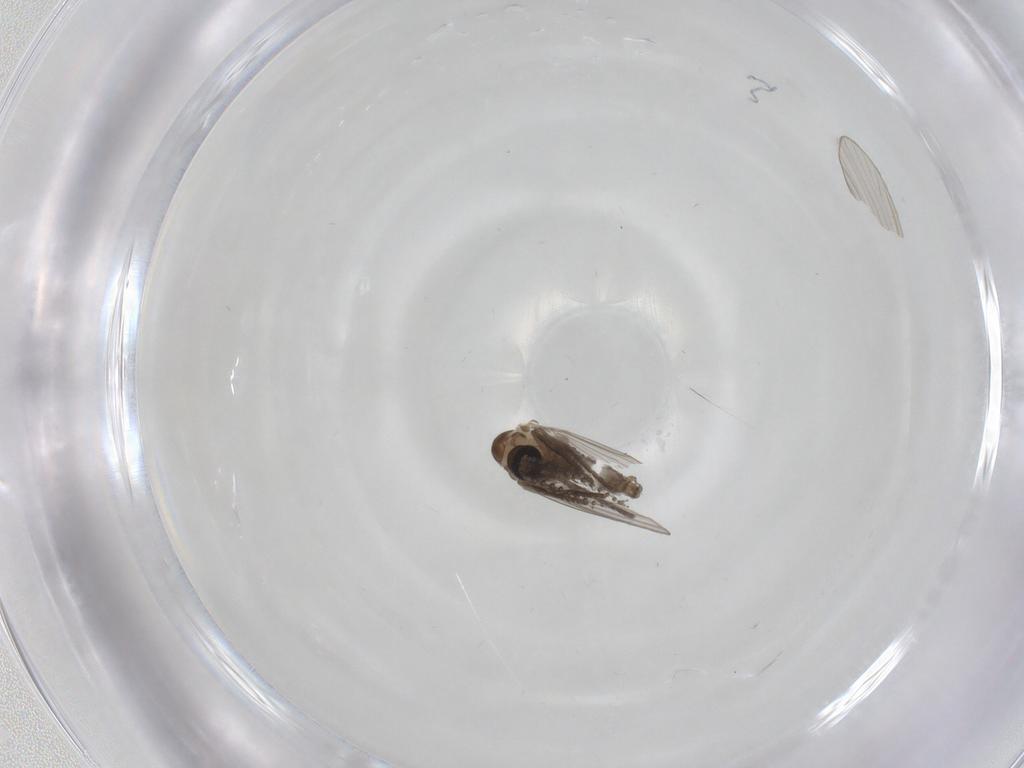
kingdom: Animalia
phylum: Arthropoda
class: Insecta
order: Diptera
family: Psychodidae
